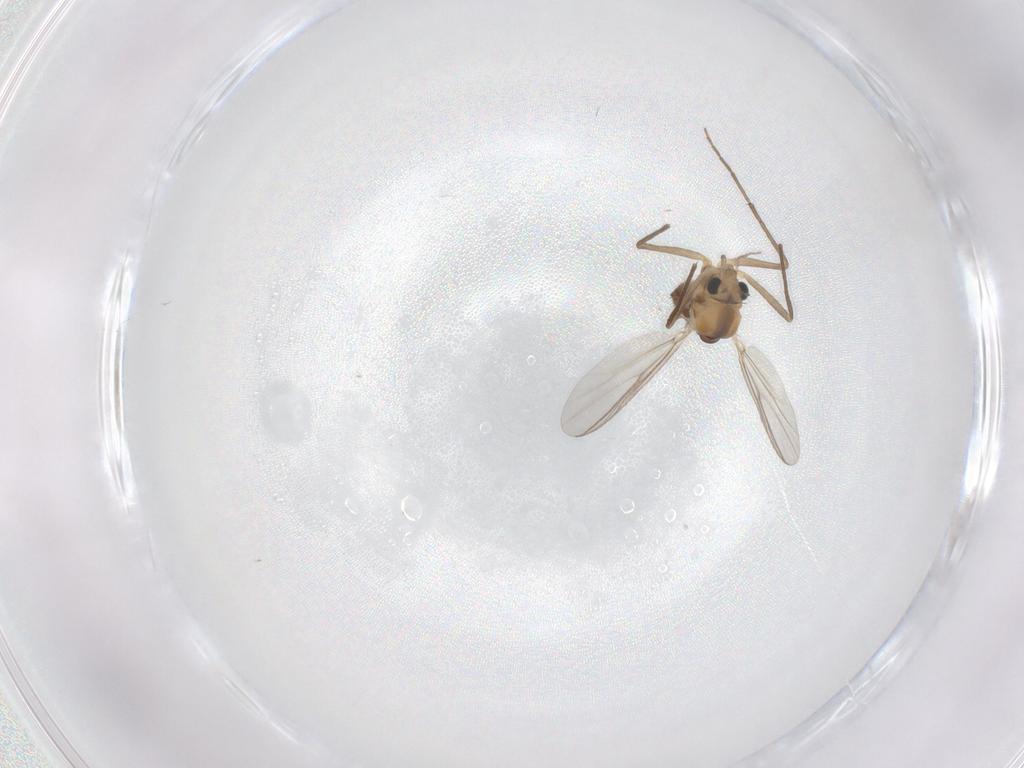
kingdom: Animalia
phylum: Arthropoda
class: Insecta
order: Diptera
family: Chironomidae
